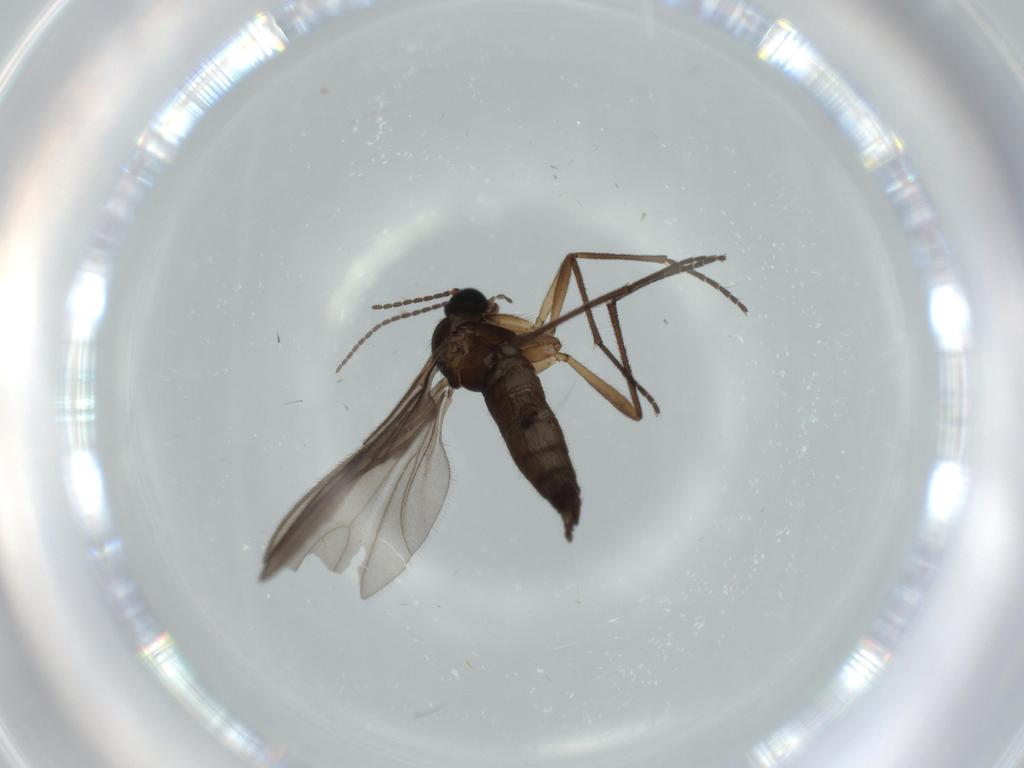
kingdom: Animalia
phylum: Arthropoda
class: Insecta
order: Diptera
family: Sciaridae
